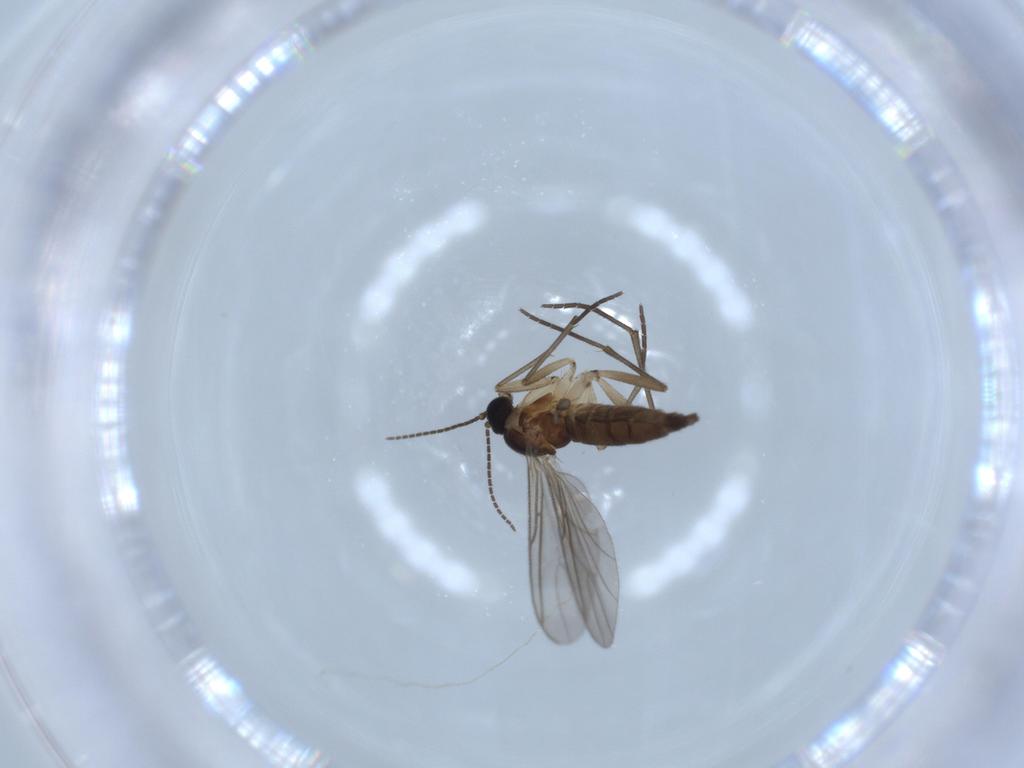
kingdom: Animalia
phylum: Arthropoda
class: Insecta
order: Diptera
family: Sciaridae
